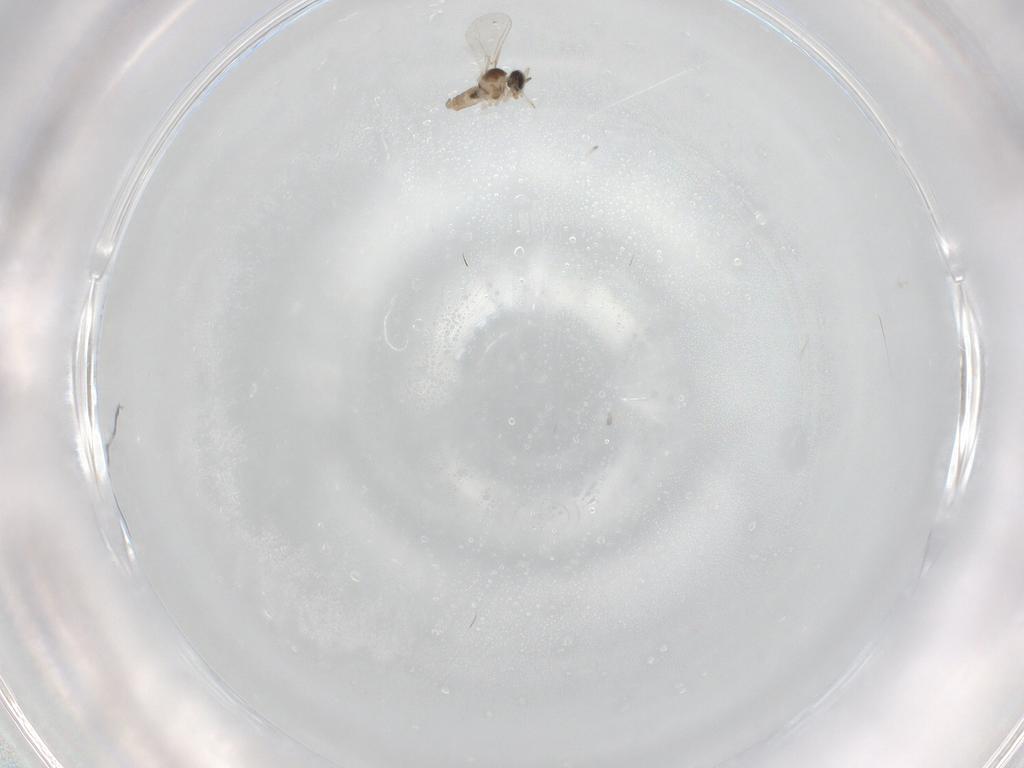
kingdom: Animalia
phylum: Arthropoda
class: Insecta
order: Diptera
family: Cecidomyiidae
